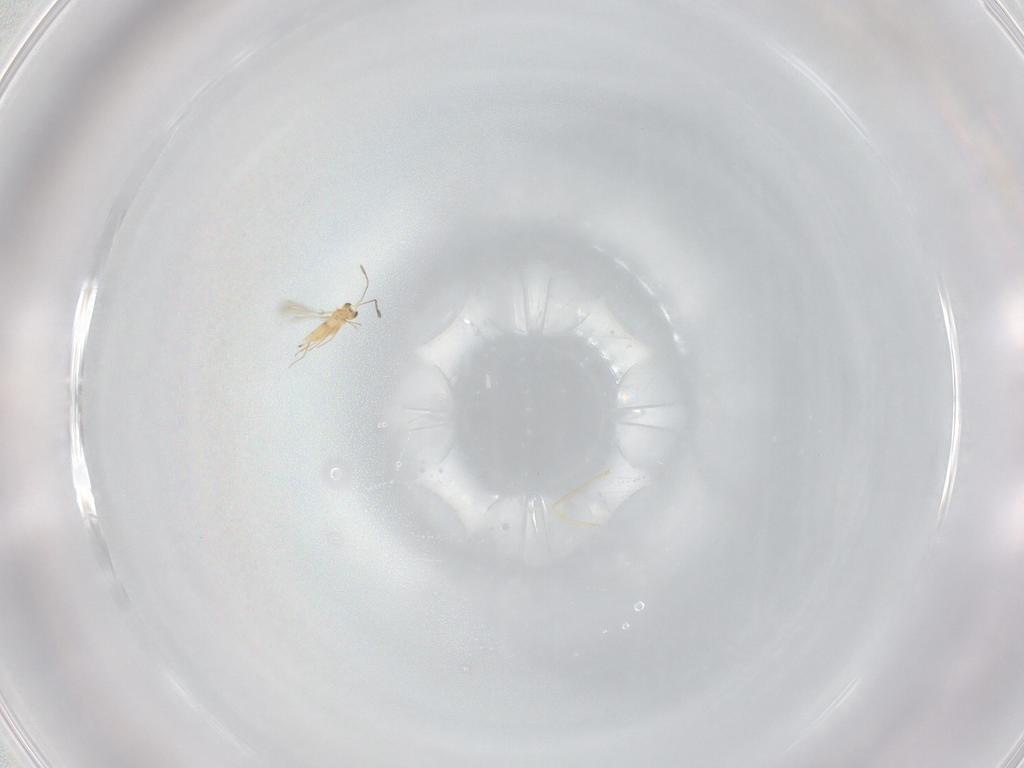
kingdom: Animalia
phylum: Arthropoda
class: Insecta
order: Hymenoptera
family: Mymaridae
